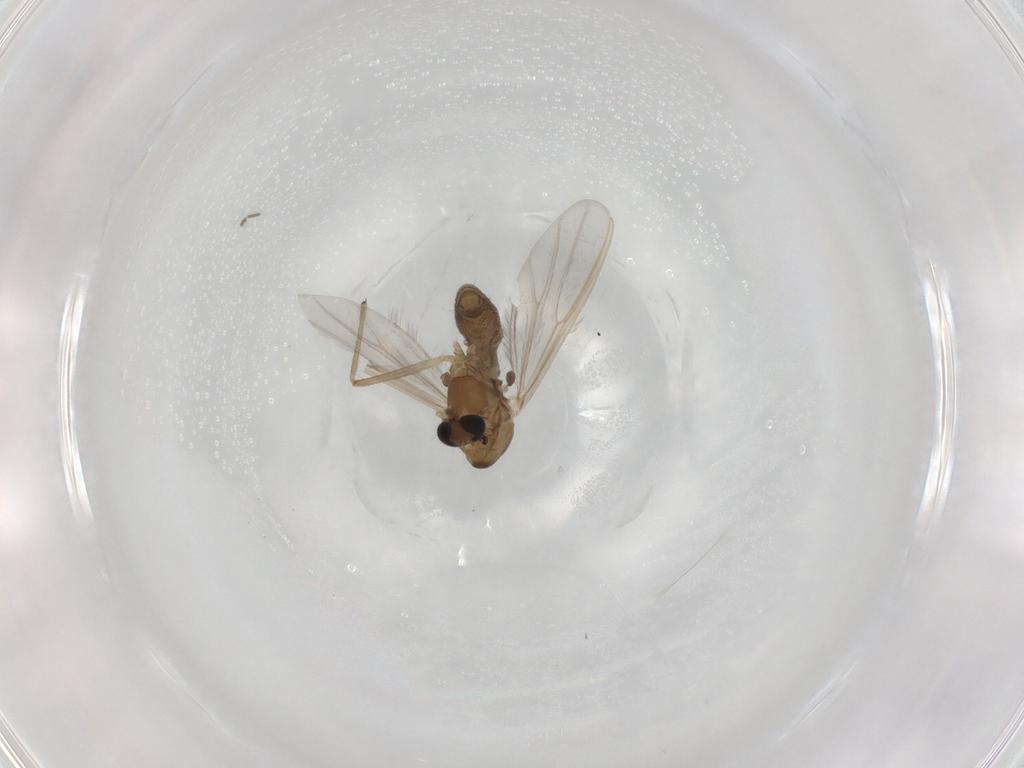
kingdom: Animalia
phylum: Arthropoda
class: Insecta
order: Diptera
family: Chironomidae
